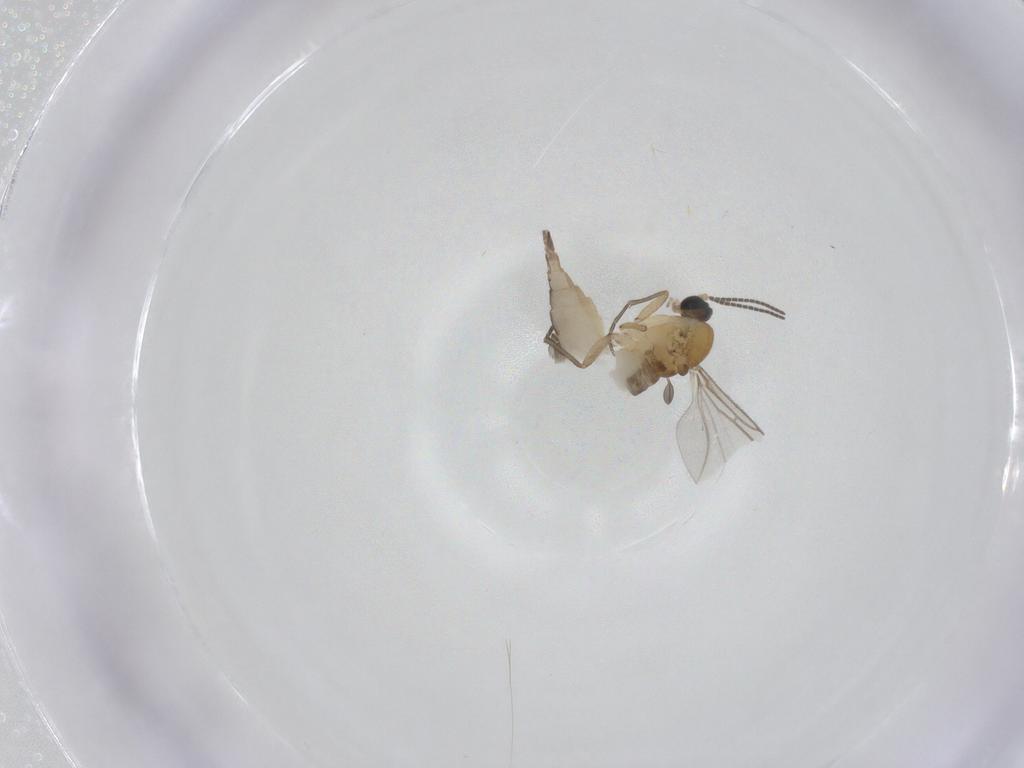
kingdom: Animalia
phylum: Arthropoda
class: Insecta
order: Diptera
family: Sciaridae
